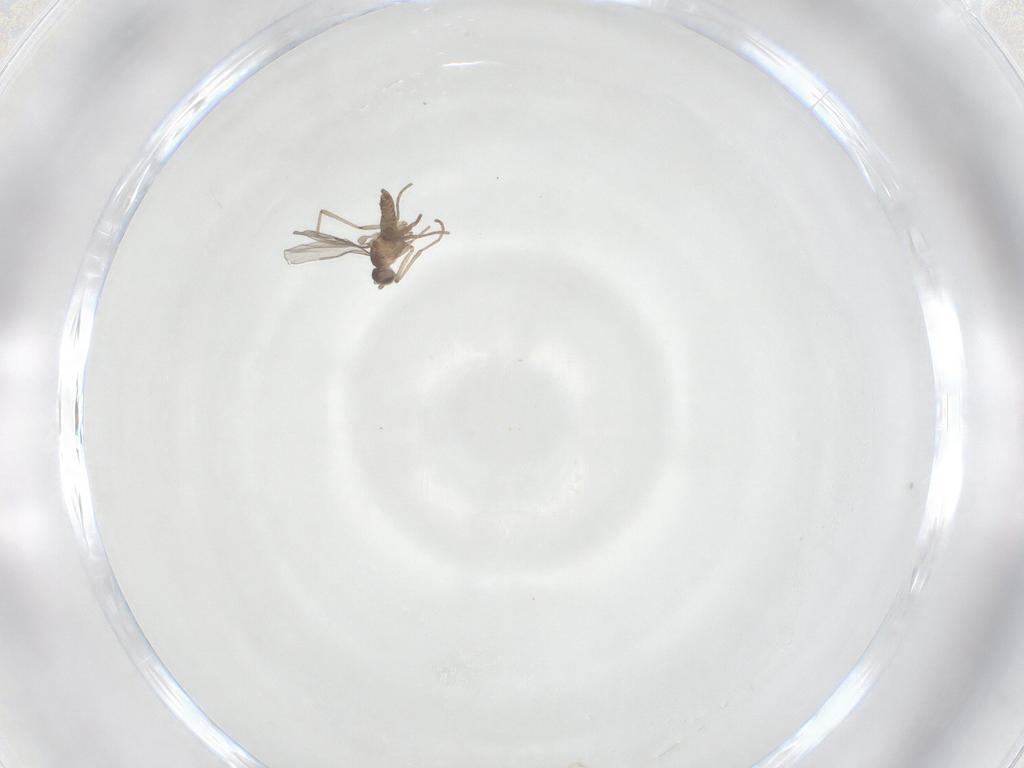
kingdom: Animalia
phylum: Arthropoda
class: Insecta
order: Diptera
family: Cecidomyiidae
